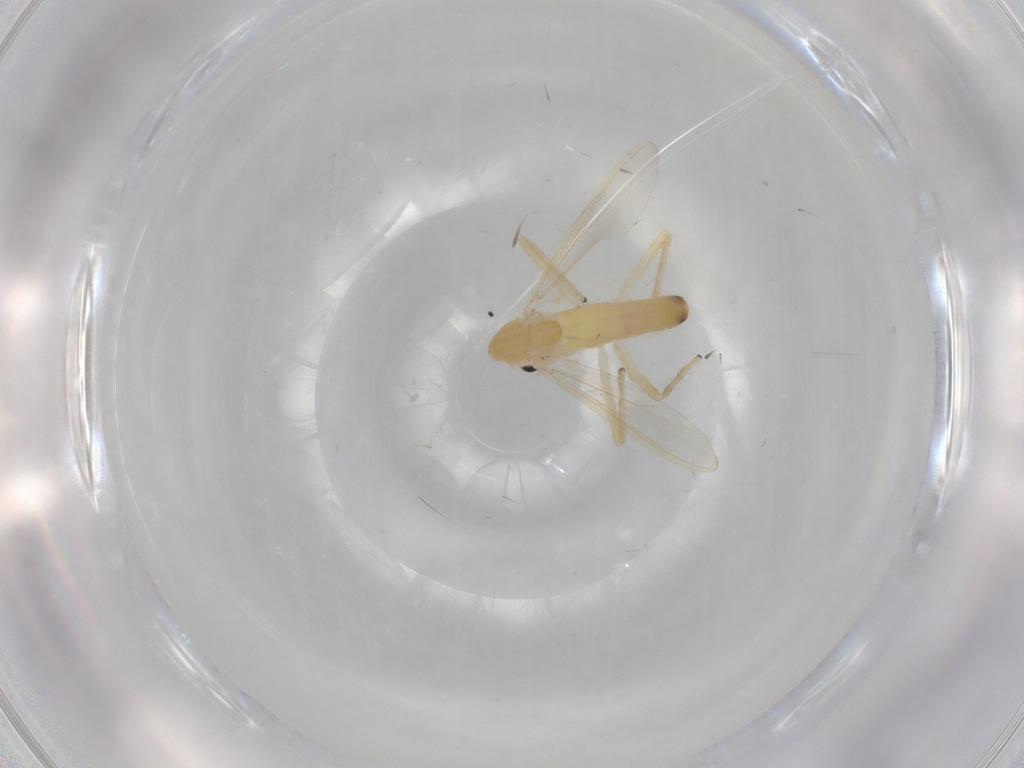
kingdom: Animalia
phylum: Arthropoda
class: Insecta
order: Diptera
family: Chironomidae
